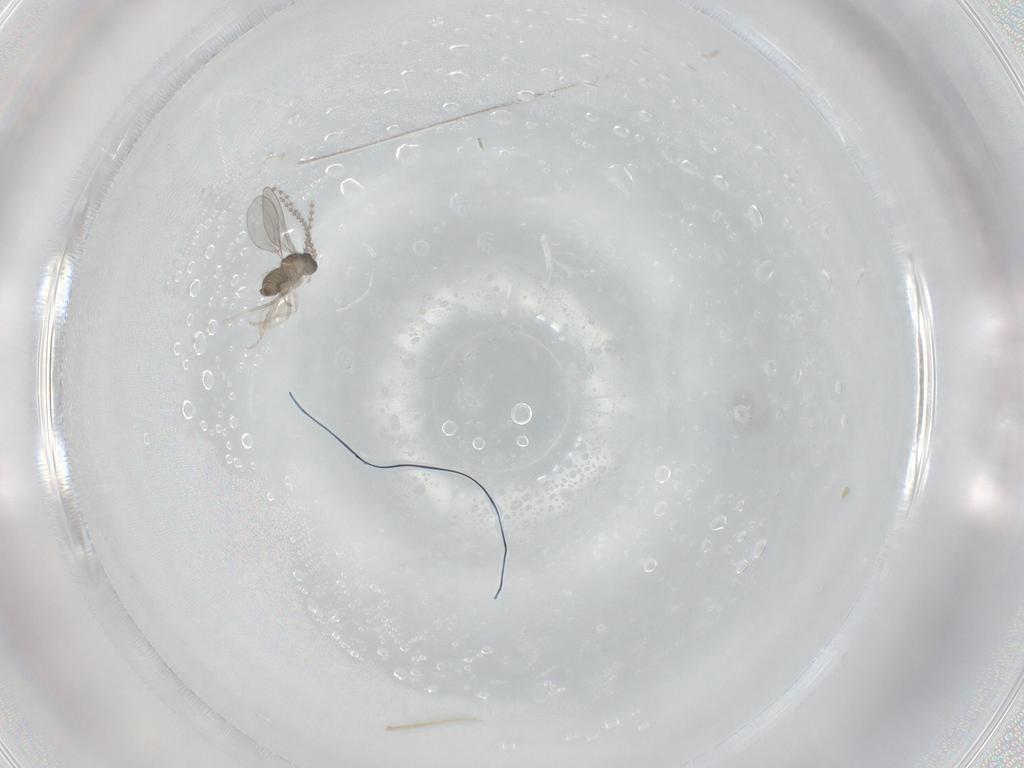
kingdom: Animalia
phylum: Arthropoda
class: Insecta
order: Diptera
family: Cecidomyiidae
